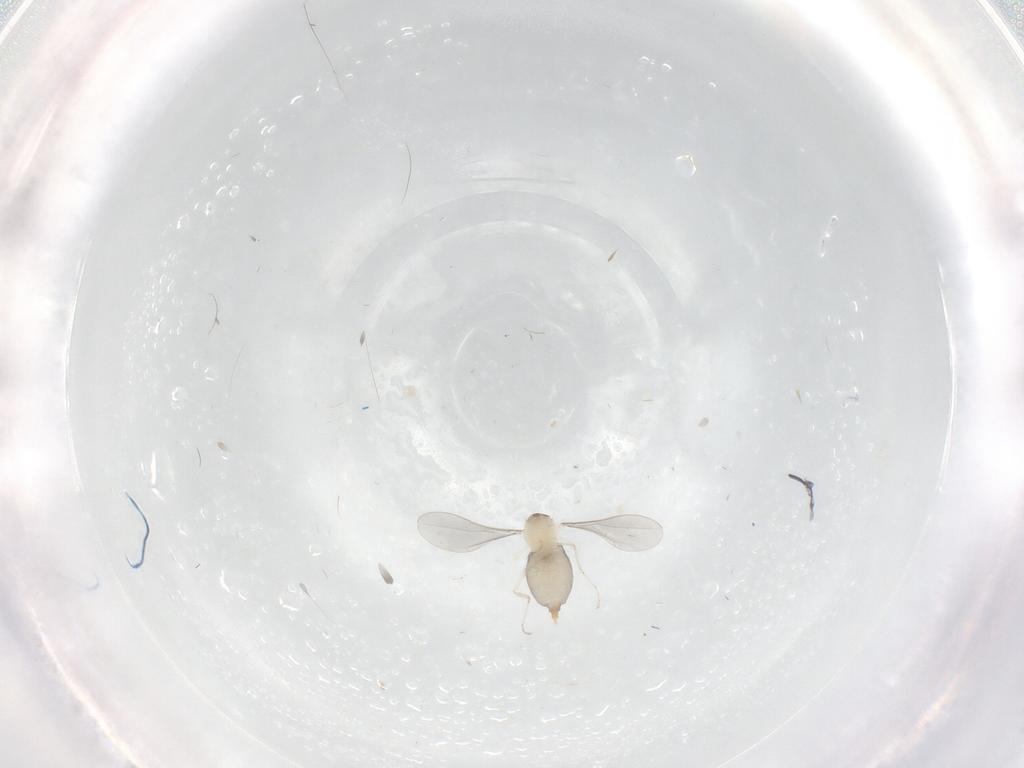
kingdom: Animalia
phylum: Arthropoda
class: Insecta
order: Diptera
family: Cecidomyiidae
